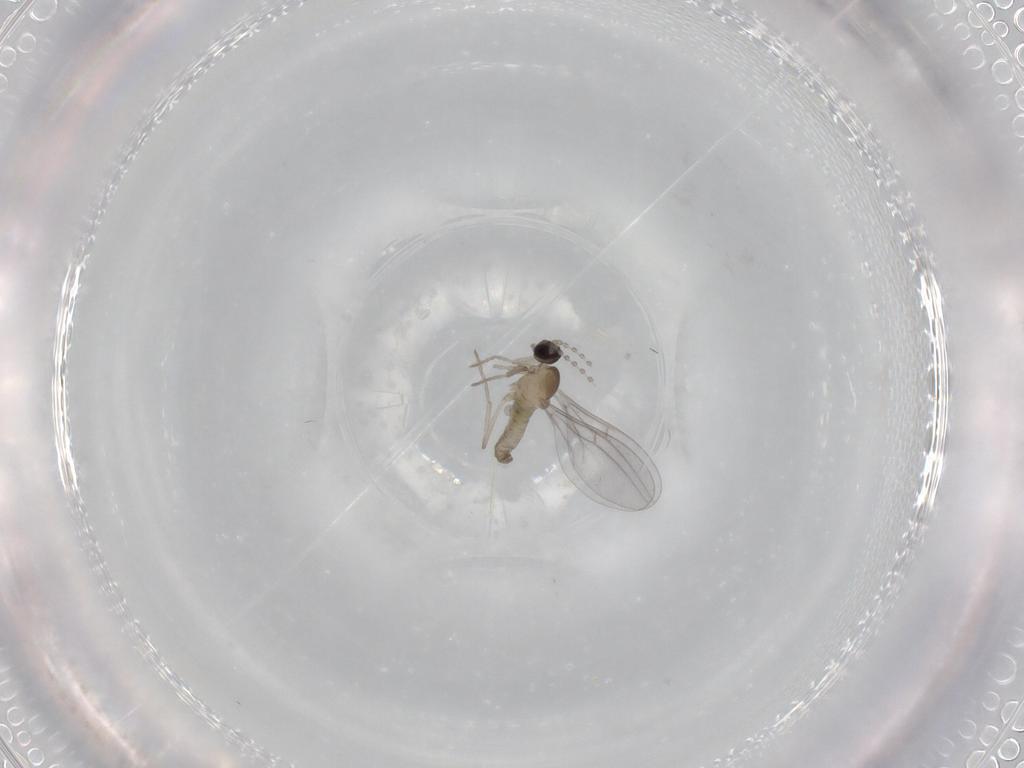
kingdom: Animalia
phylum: Arthropoda
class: Insecta
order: Diptera
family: Cecidomyiidae
